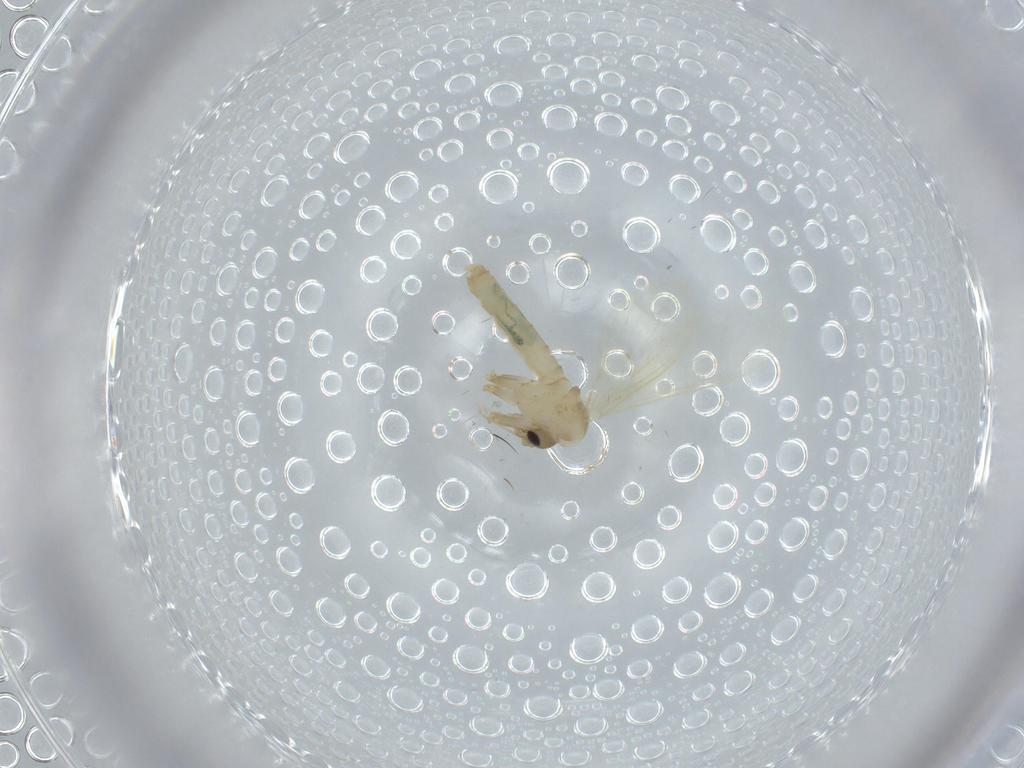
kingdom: Animalia
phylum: Arthropoda
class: Insecta
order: Diptera
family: Psychodidae
